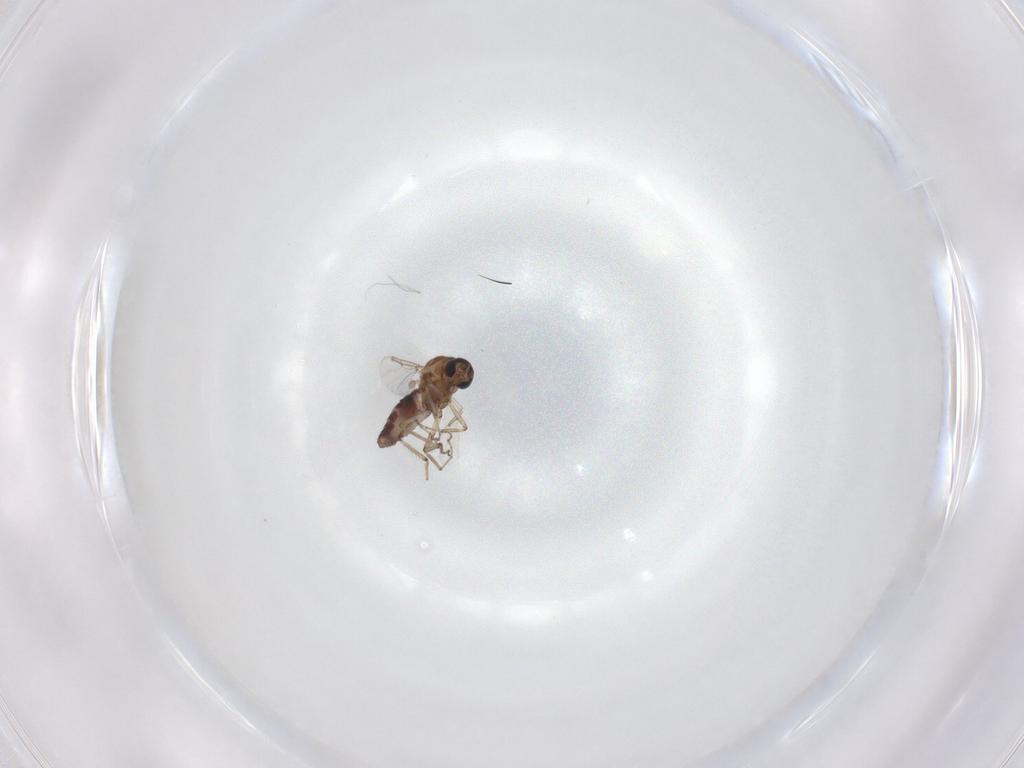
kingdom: Animalia
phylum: Arthropoda
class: Insecta
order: Diptera
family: Ceratopogonidae
